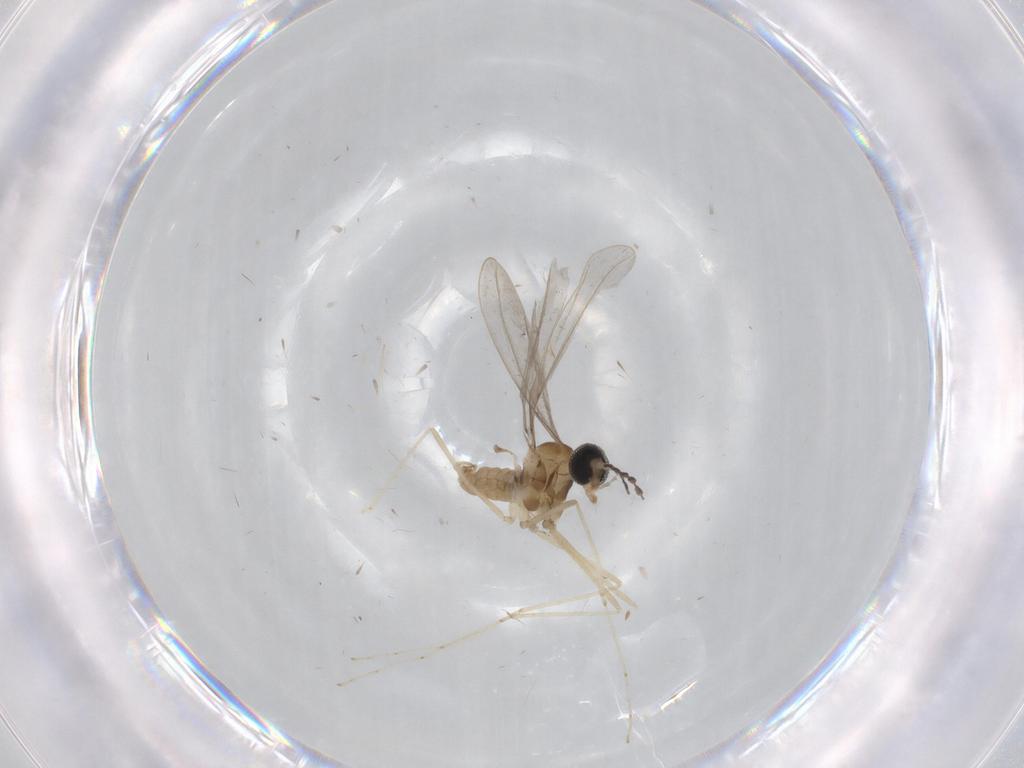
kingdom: Animalia
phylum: Arthropoda
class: Insecta
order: Diptera
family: Sciaridae
